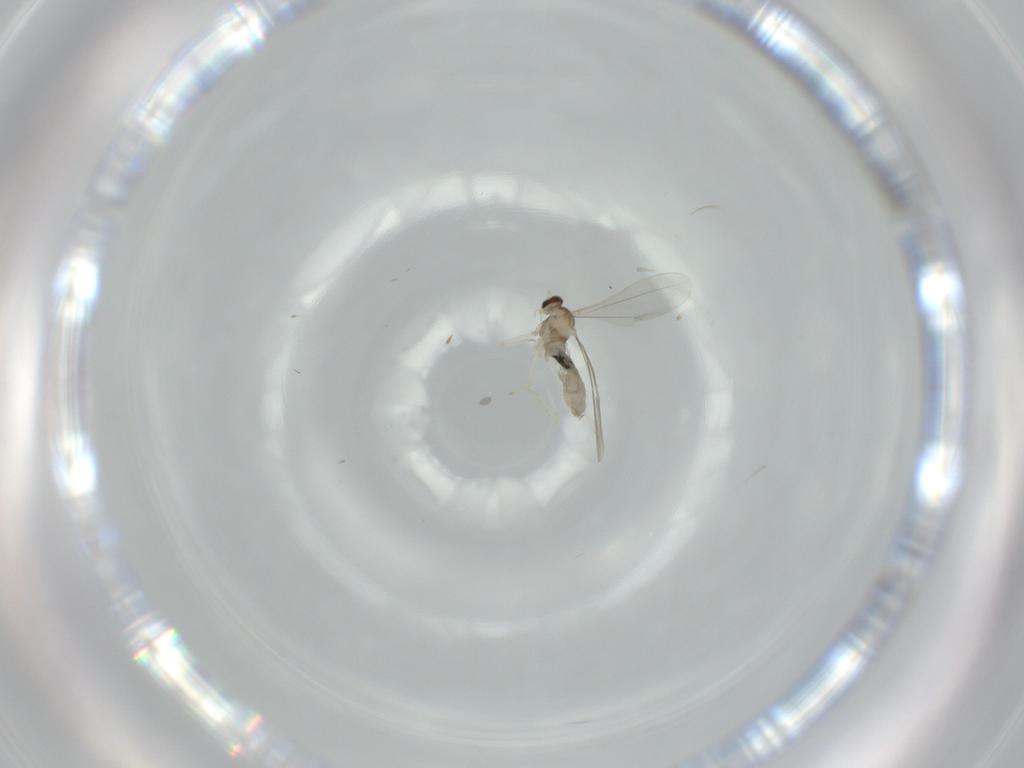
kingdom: Animalia
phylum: Arthropoda
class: Insecta
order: Diptera
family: Cecidomyiidae
